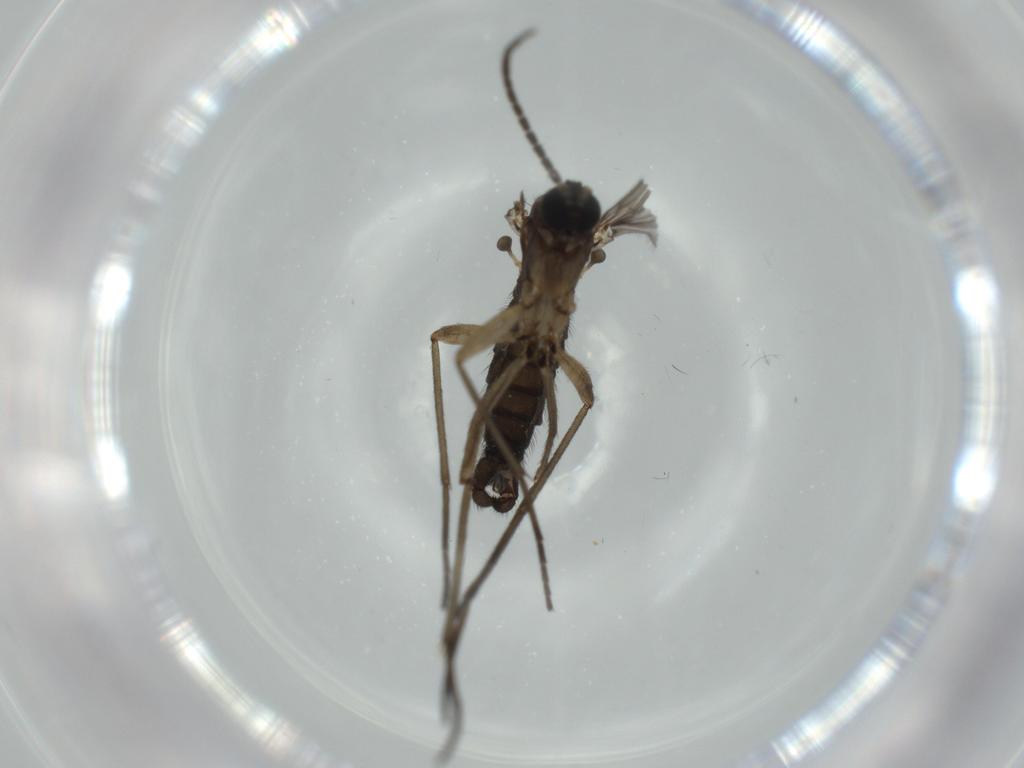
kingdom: Animalia
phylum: Arthropoda
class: Insecta
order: Diptera
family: Sciaridae
